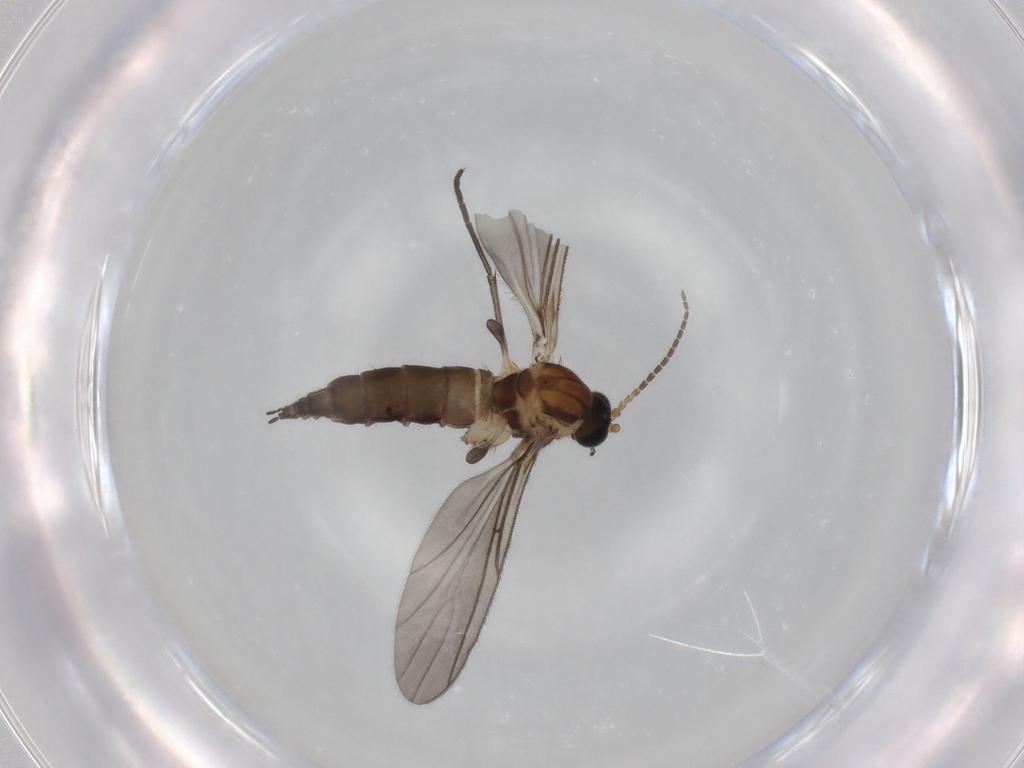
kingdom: Animalia
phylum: Arthropoda
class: Insecta
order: Diptera
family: Sciaridae
